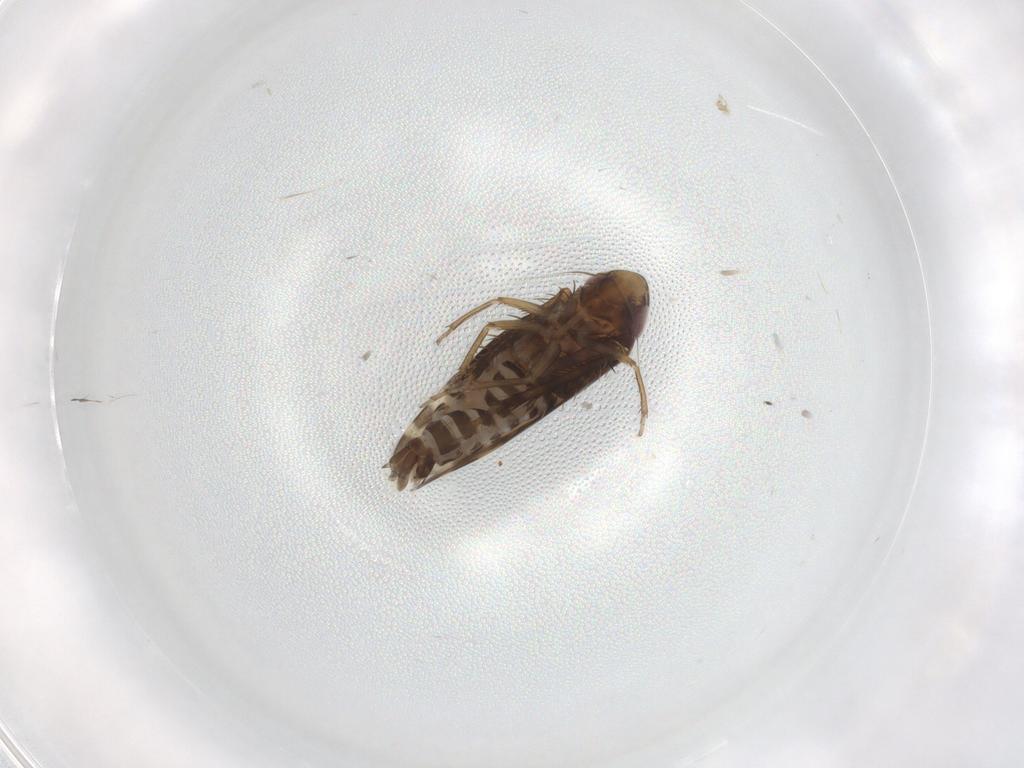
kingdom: Animalia
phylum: Arthropoda
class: Insecta
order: Hemiptera
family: Cicadellidae
